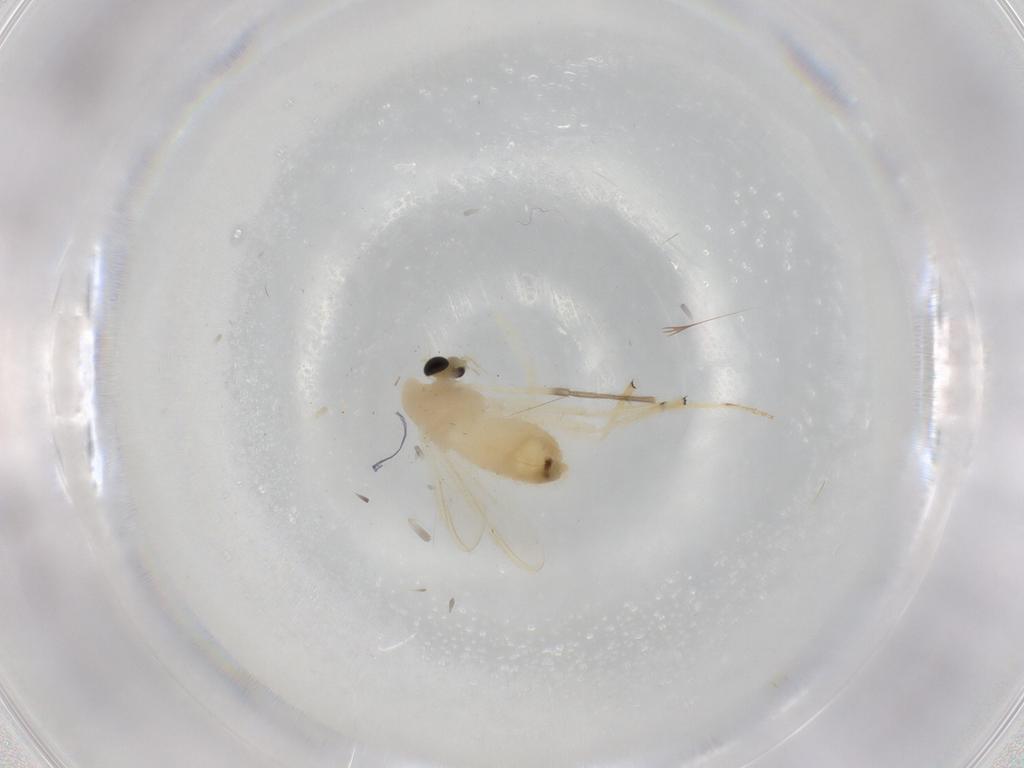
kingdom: Animalia
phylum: Arthropoda
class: Insecta
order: Diptera
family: Chironomidae
